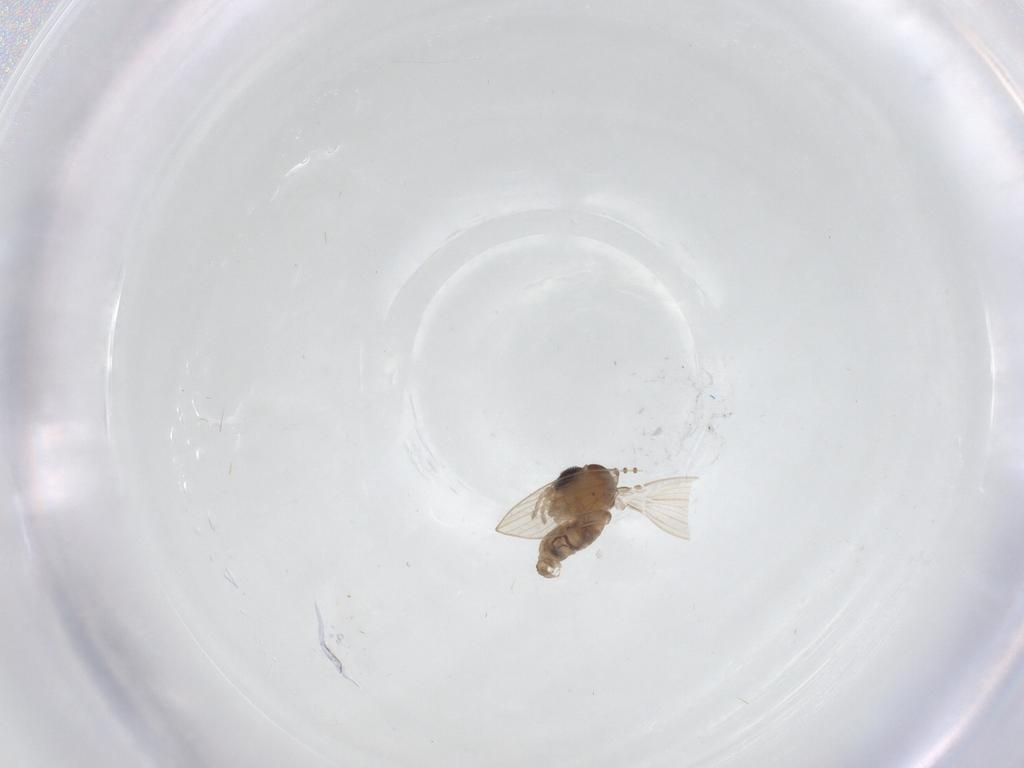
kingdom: Animalia
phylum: Arthropoda
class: Insecta
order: Diptera
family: Psychodidae
